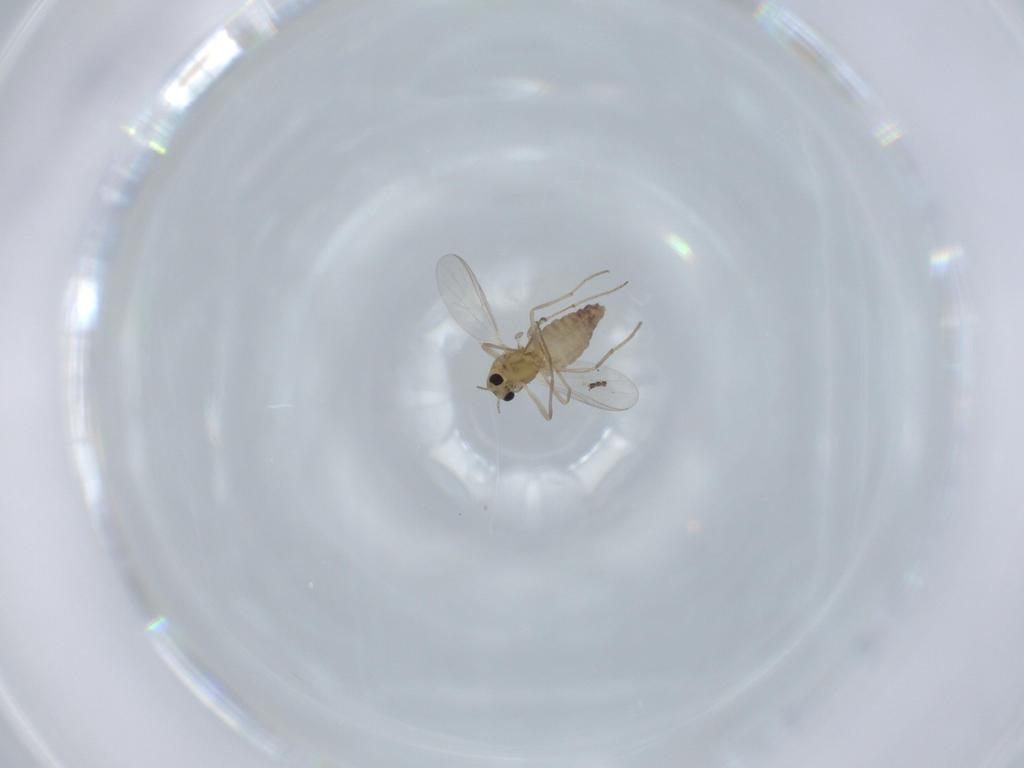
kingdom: Animalia
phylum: Arthropoda
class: Insecta
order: Diptera
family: Chironomidae
